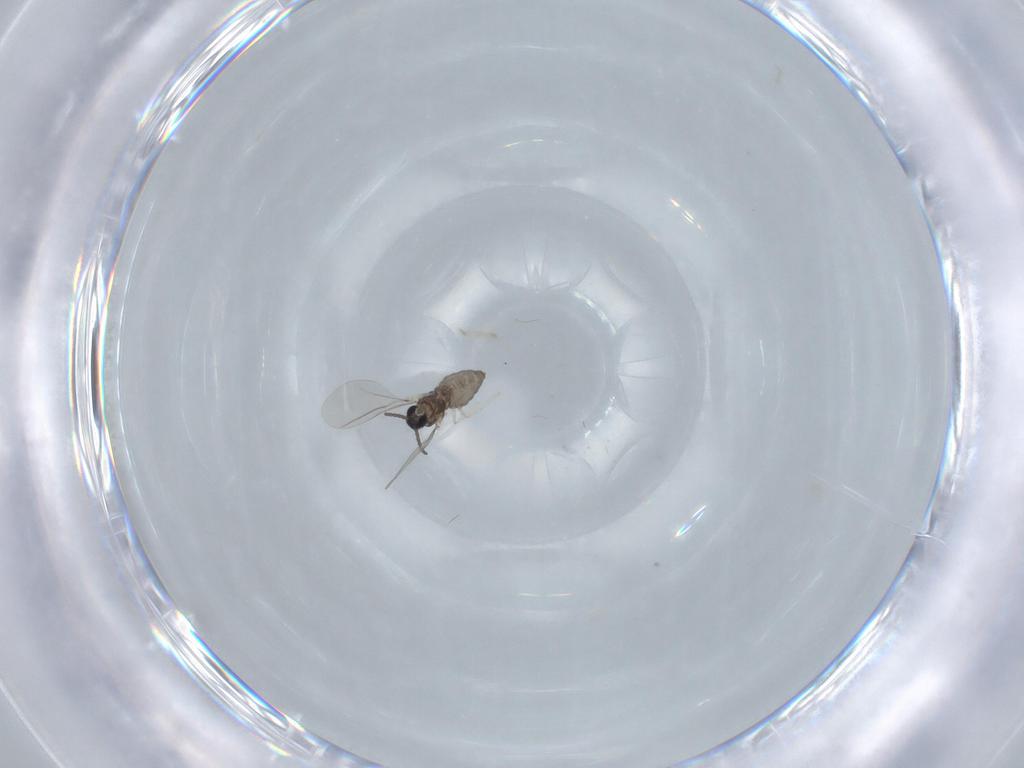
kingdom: Animalia
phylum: Arthropoda
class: Insecta
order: Diptera
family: Cecidomyiidae
